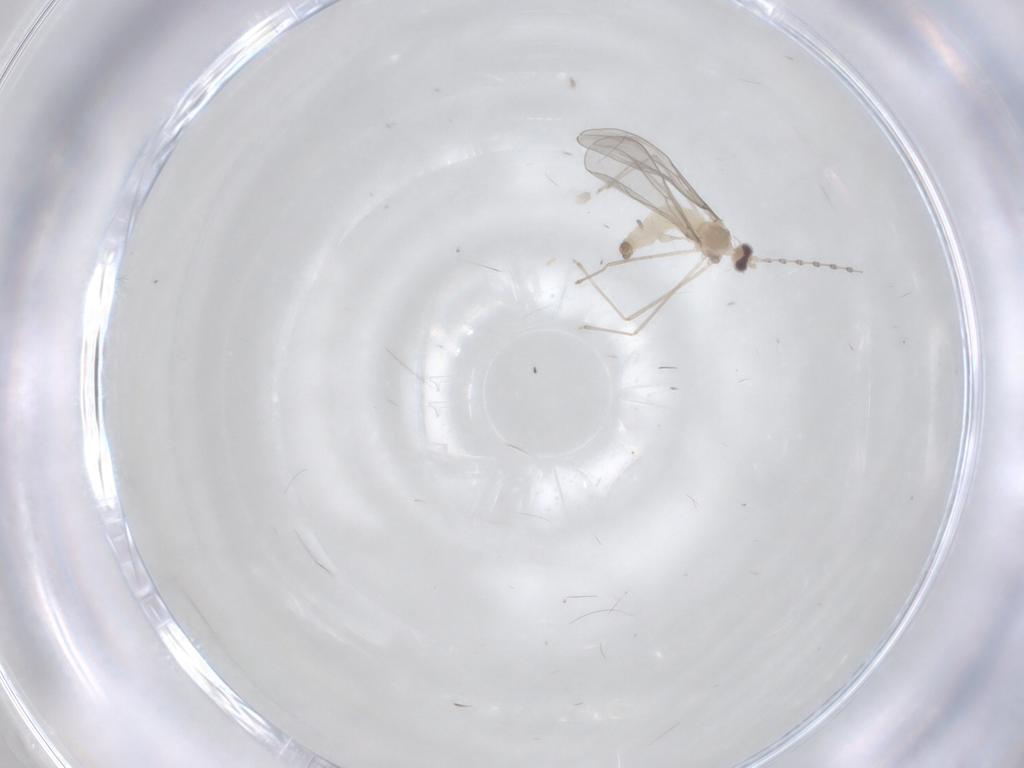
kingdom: Animalia
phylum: Arthropoda
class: Insecta
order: Diptera
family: Cecidomyiidae
